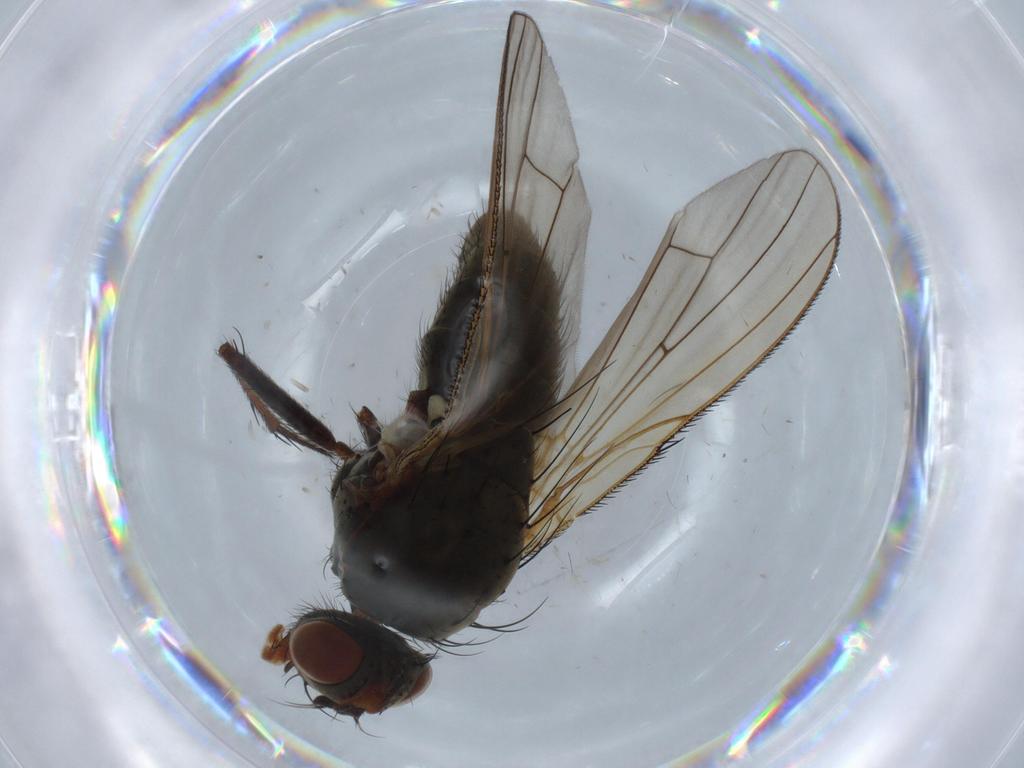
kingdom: Animalia
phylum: Arthropoda
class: Insecta
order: Diptera
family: Anthomyiidae
